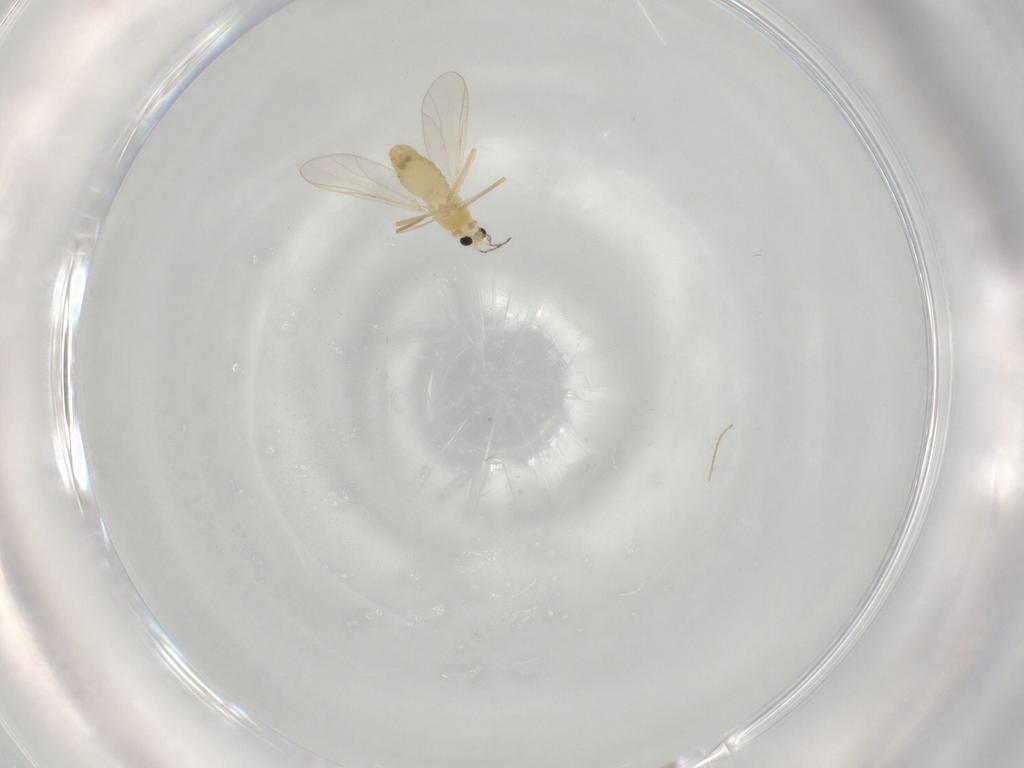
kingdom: Animalia
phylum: Arthropoda
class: Insecta
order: Diptera
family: Chironomidae
